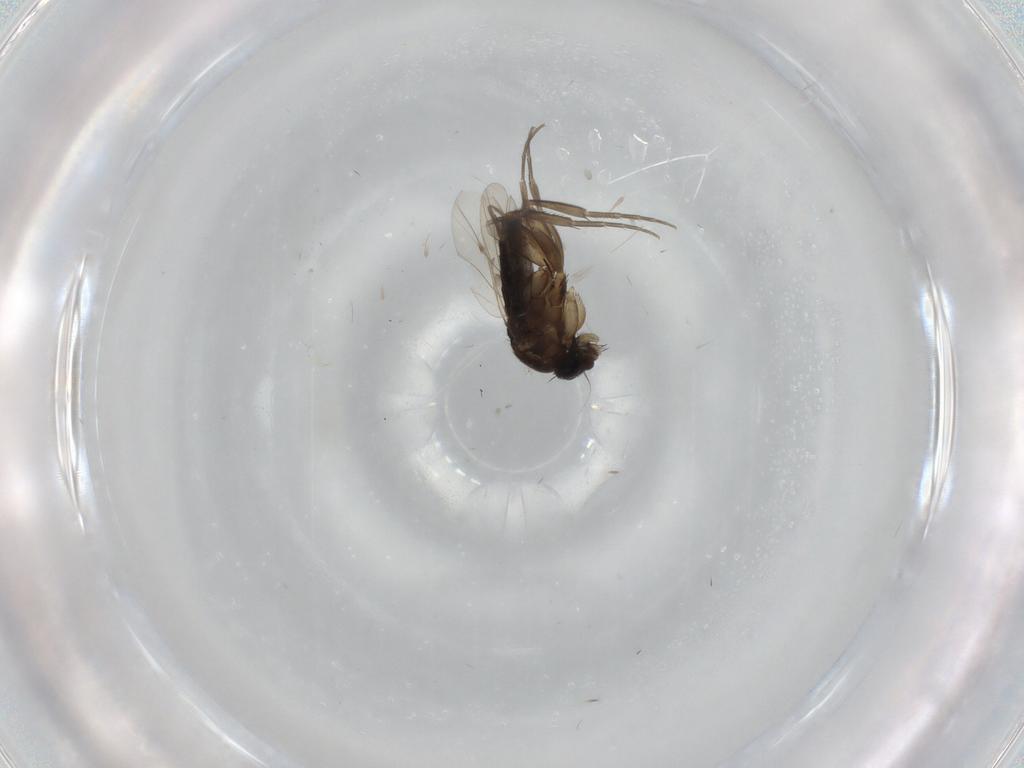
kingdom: Animalia
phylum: Arthropoda
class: Insecta
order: Diptera
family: Phoridae
